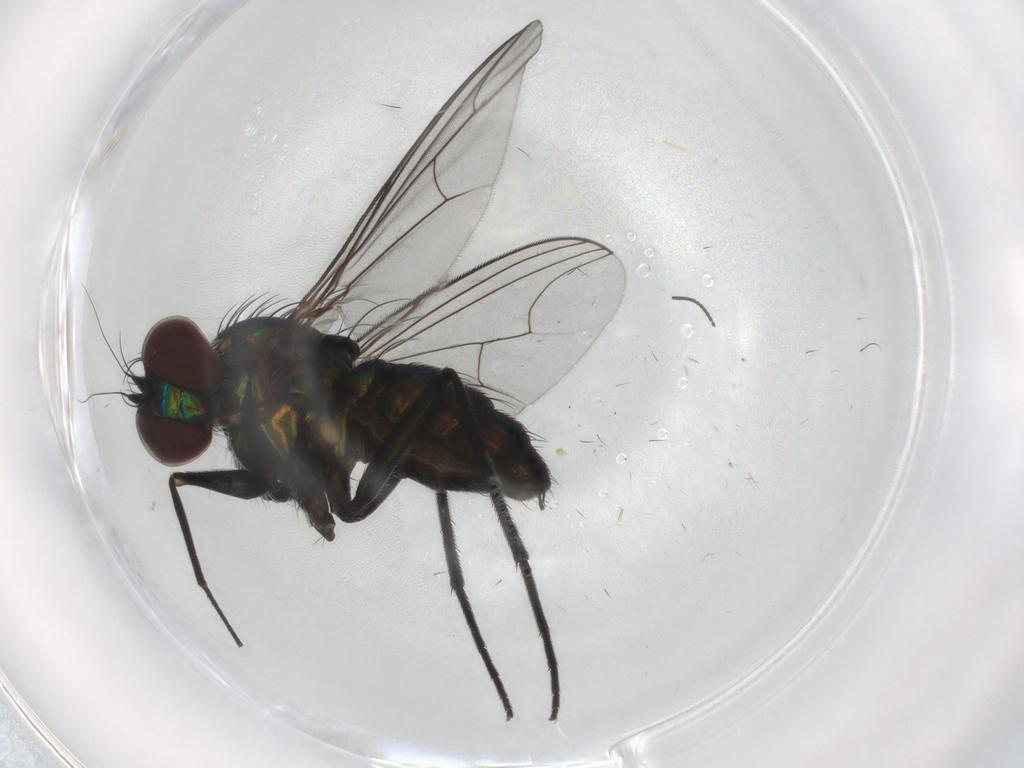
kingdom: Animalia
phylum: Arthropoda
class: Insecta
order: Diptera
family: Dolichopodidae
